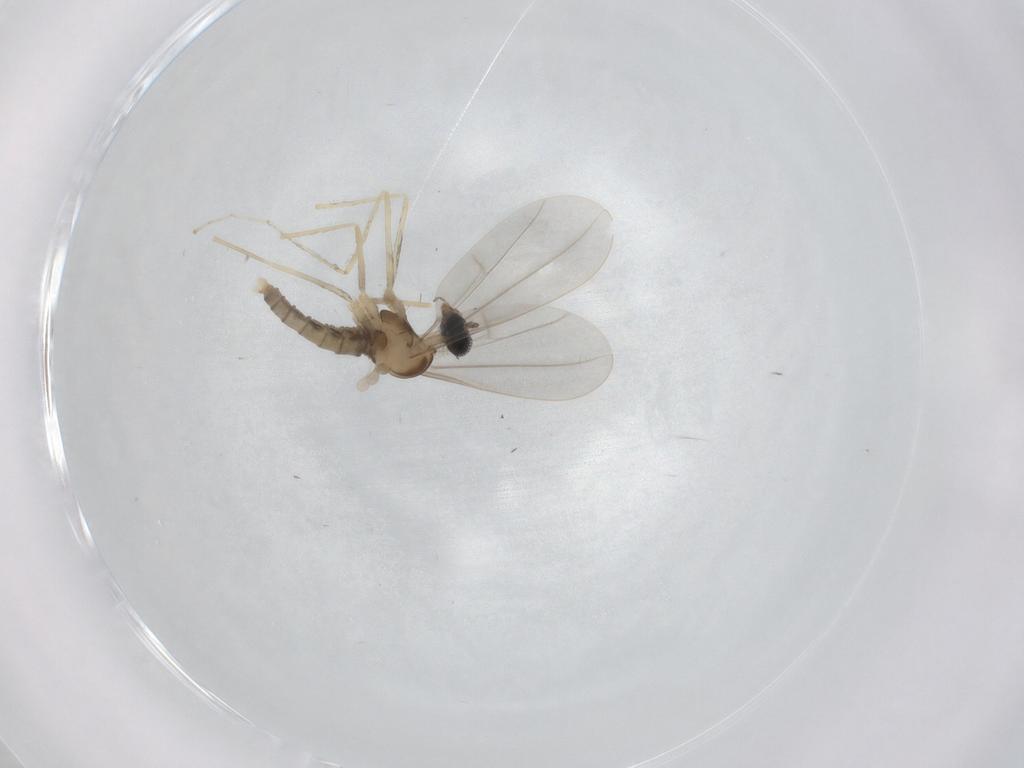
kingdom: Animalia
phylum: Arthropoda
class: Insecta
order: Diptera
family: Cecidomyiidae
